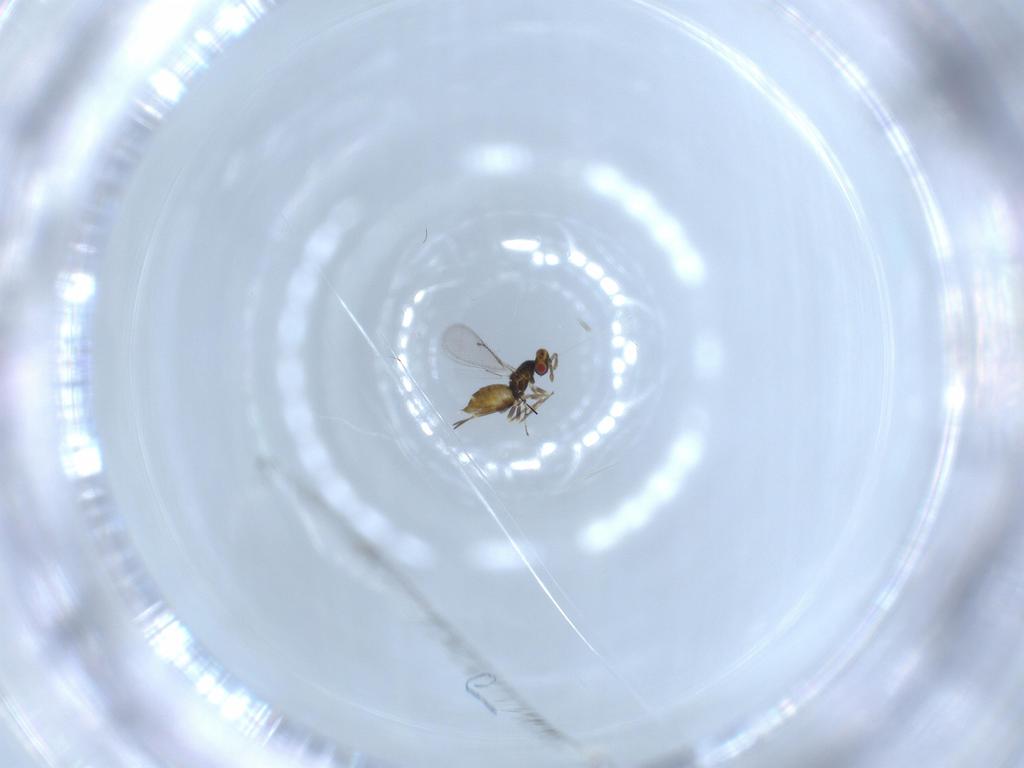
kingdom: Animalia
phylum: Arthropoda
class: Insecta
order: Hymenoptera
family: Eulophidae
